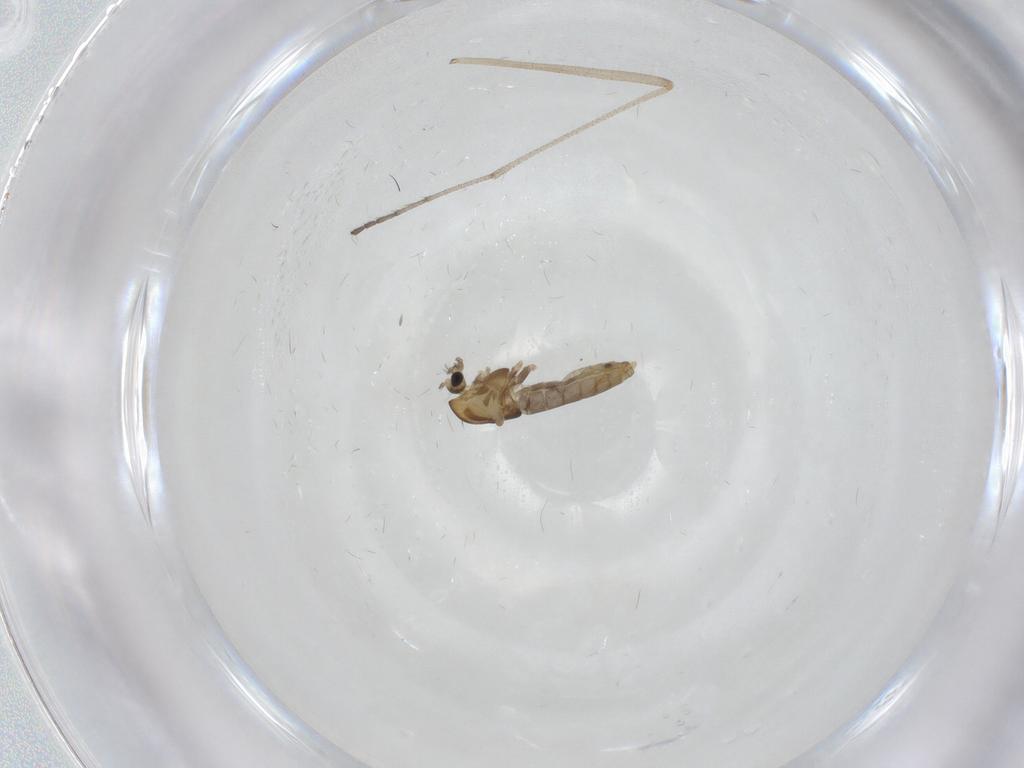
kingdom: Animalia
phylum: Arthropoda
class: Insecta
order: Diptera
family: Chironomidae
